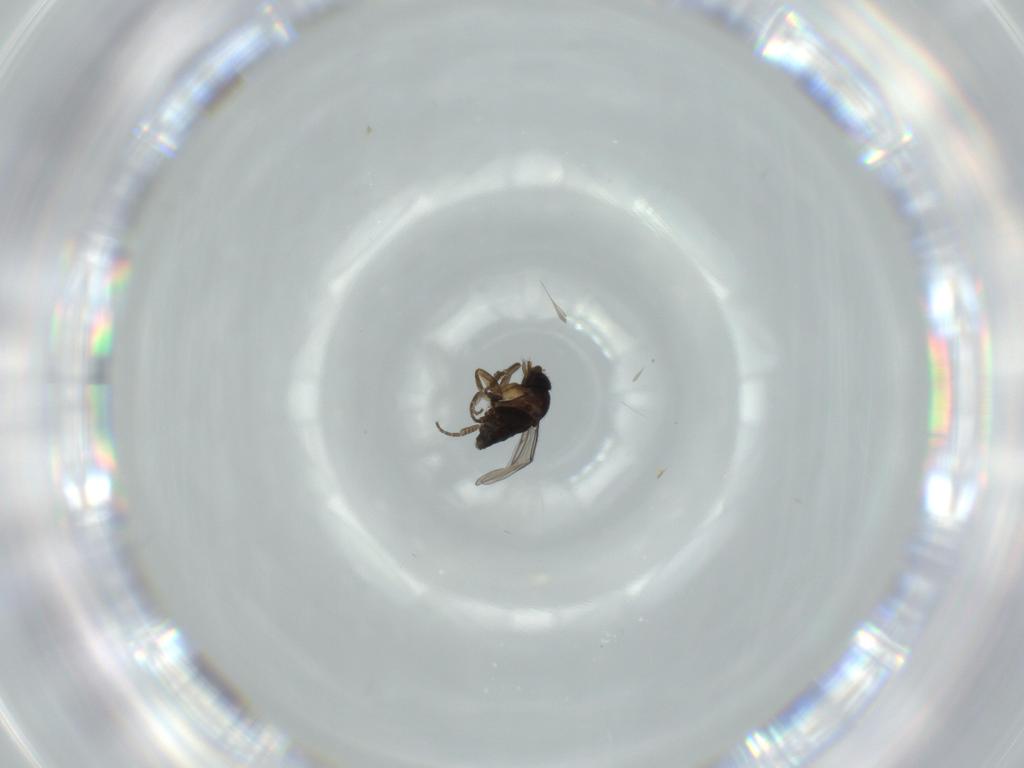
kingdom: Animalia
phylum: Arthropoda
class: Insecta
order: Diptera
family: Phoridae
